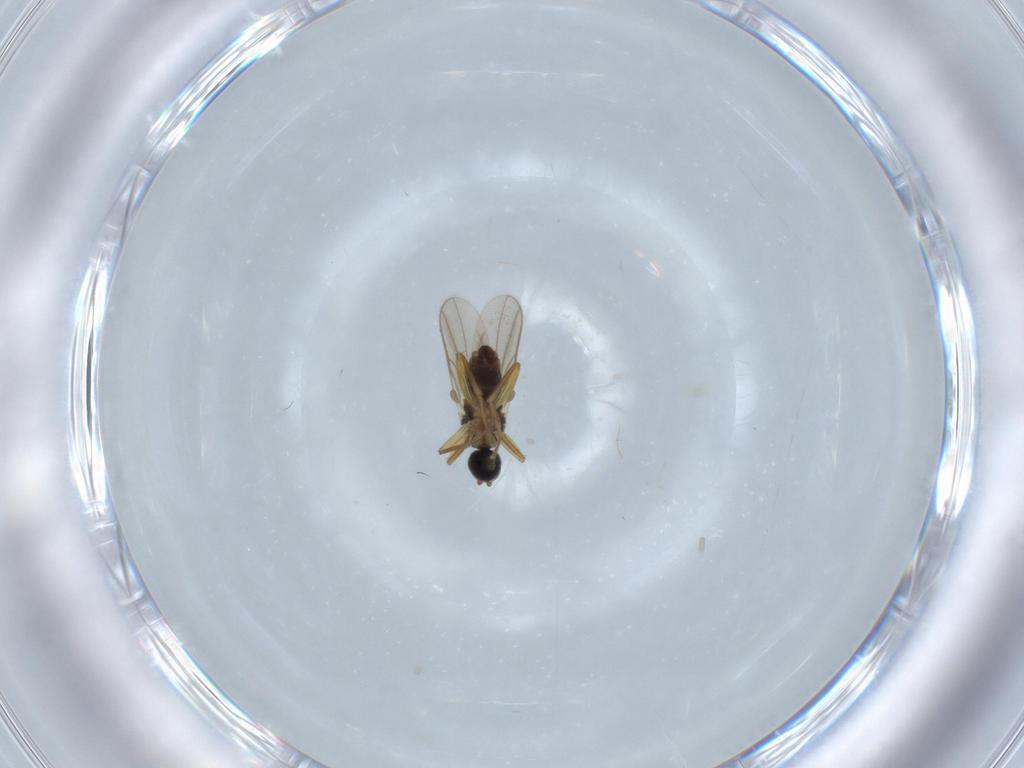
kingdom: Animalia
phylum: Arthropoda
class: Insecta
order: Diptera
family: Hybotidae
